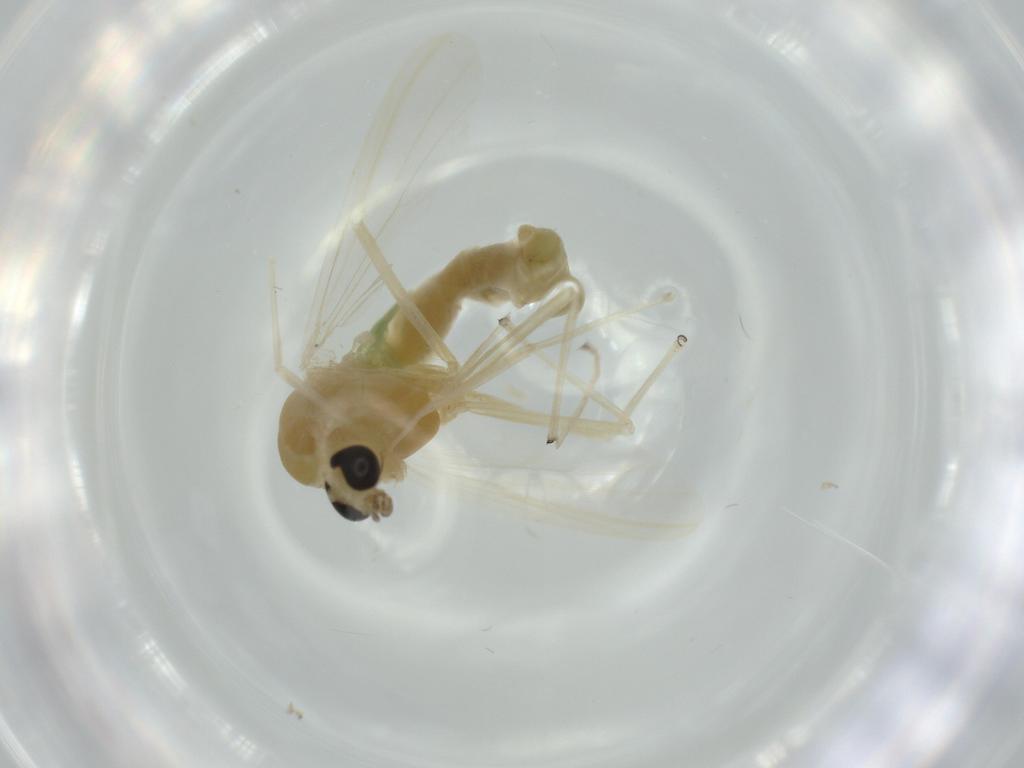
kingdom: Animalia
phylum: Arthropoda
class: Insecta
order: Diptera
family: Chironomidae
